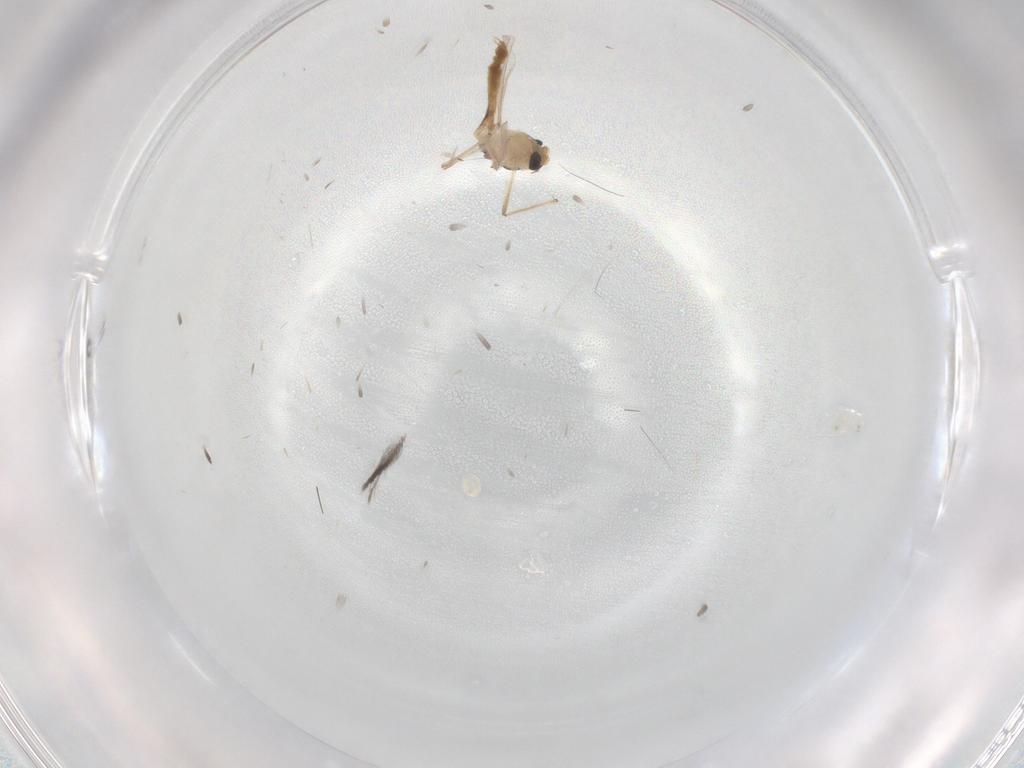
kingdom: Animalia
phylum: Arthropoda
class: Insecta
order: Diptera
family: Ceratopogonidae
